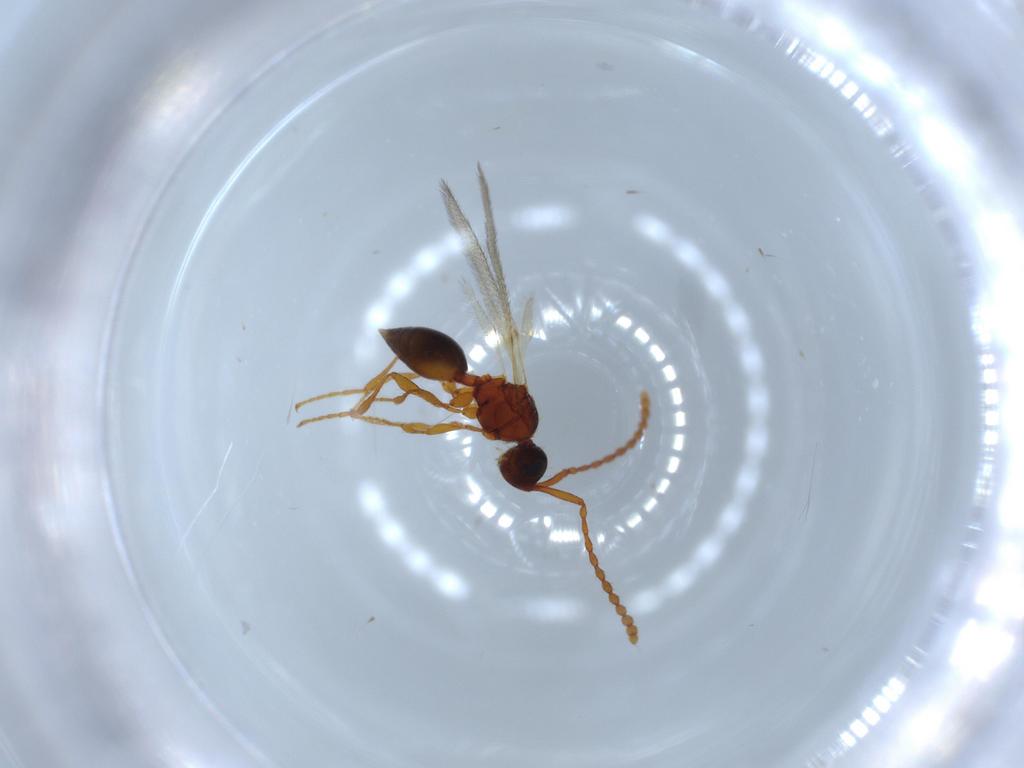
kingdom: Animalia
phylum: Arthropoda
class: Insecta
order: Hymenoptera
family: Diapriidae
